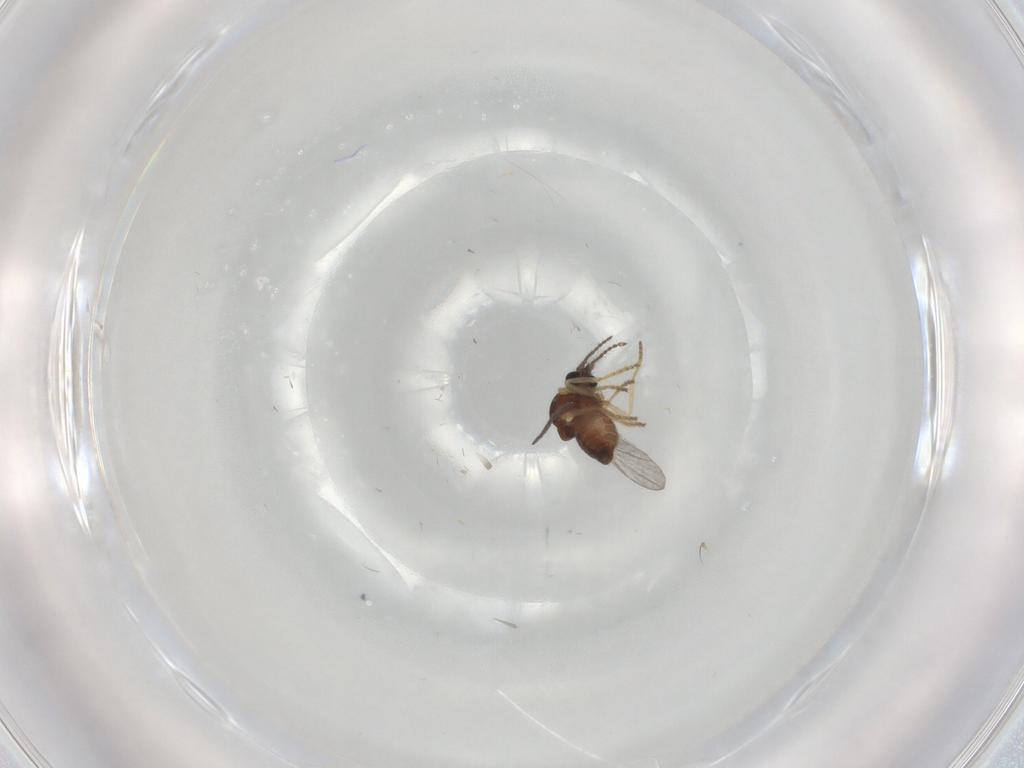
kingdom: Animalia
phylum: Arthropoda
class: Insecta
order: Diptera
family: Ceratopogonidae
